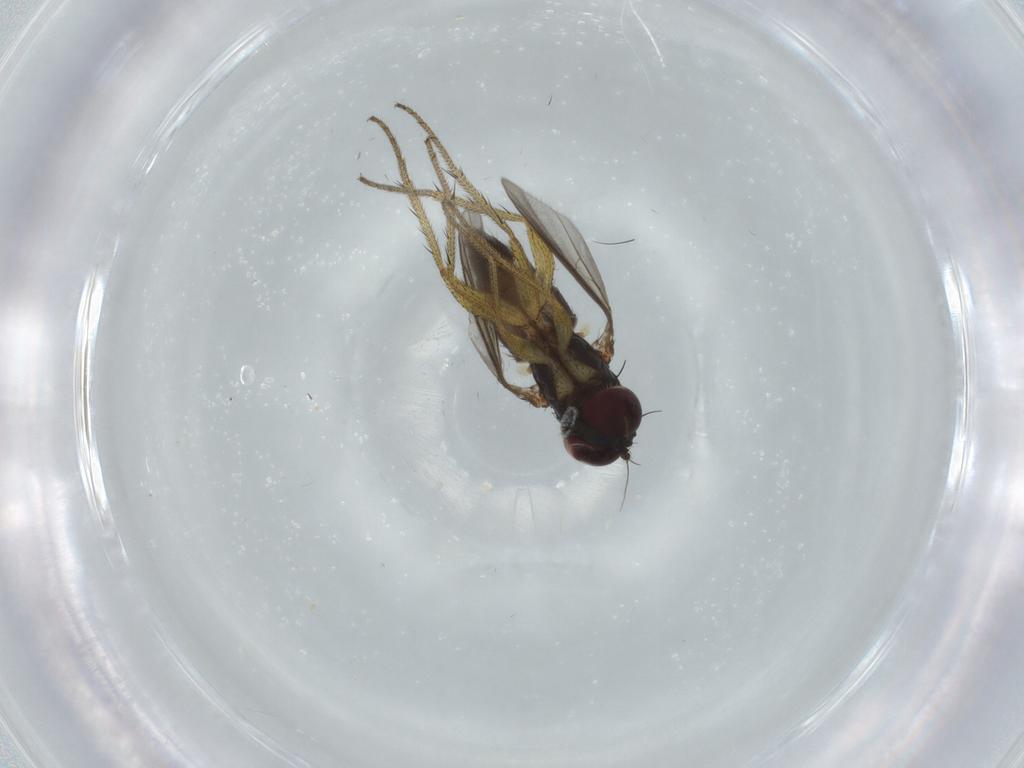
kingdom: Animalia
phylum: Arthropoda
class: Insecta
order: Diptera
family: Dolichopodidae
